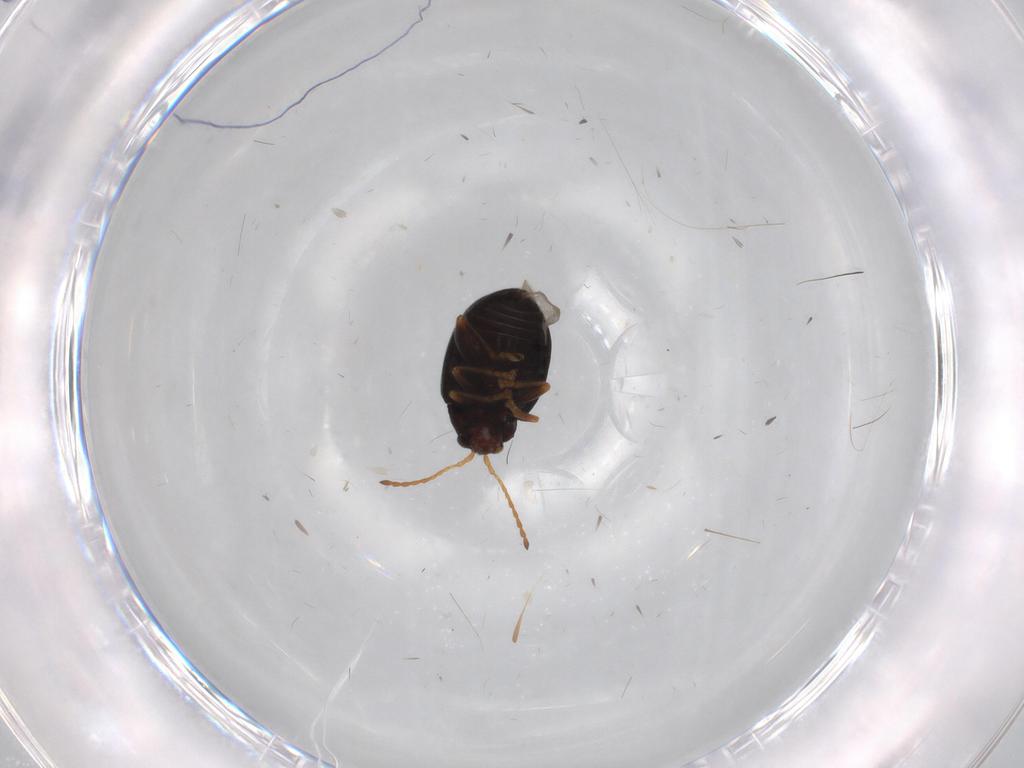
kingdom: Animalia
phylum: Arthropoda
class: Insecta
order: Coleoptera
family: Chrysomelidae
